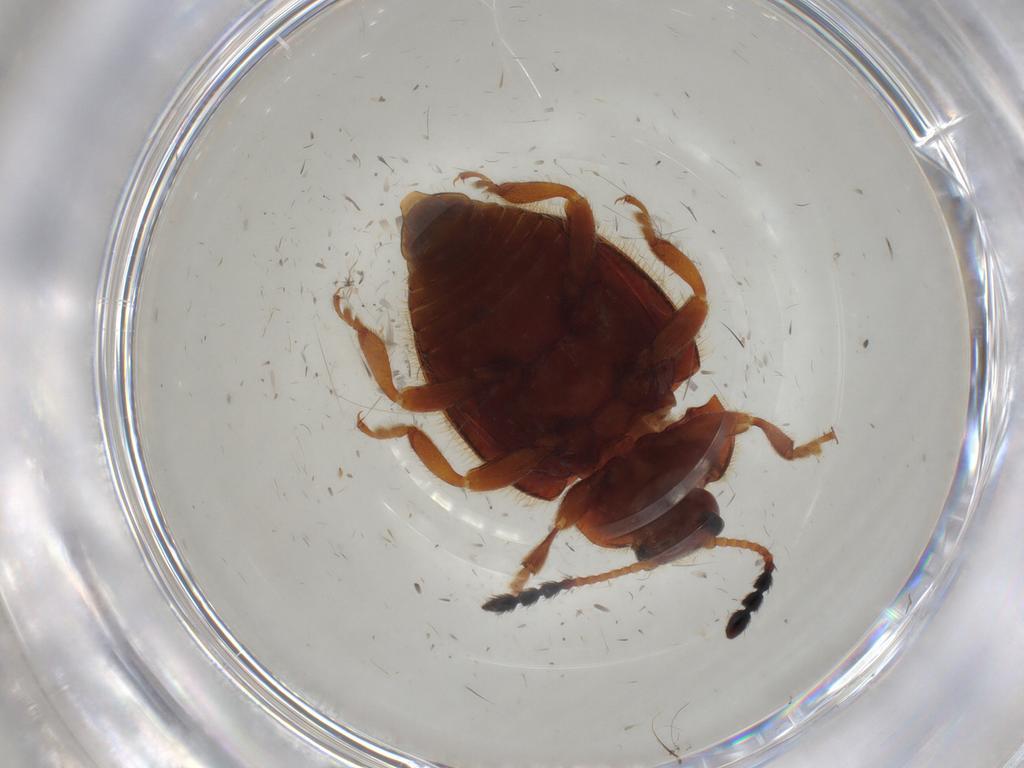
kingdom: Animalia
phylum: Arthropoda
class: Insecta
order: Coleoptera
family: Endomychidae
